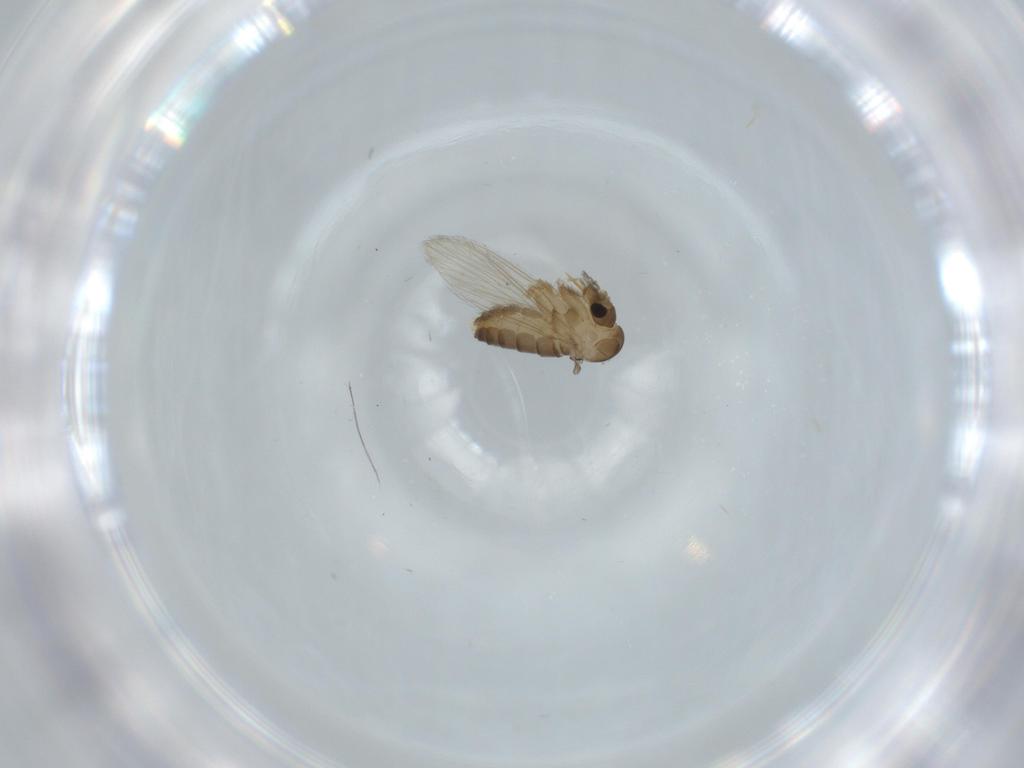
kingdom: Animalia
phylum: Arthropoda
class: Insecta
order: Diptera
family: Psychodidae
